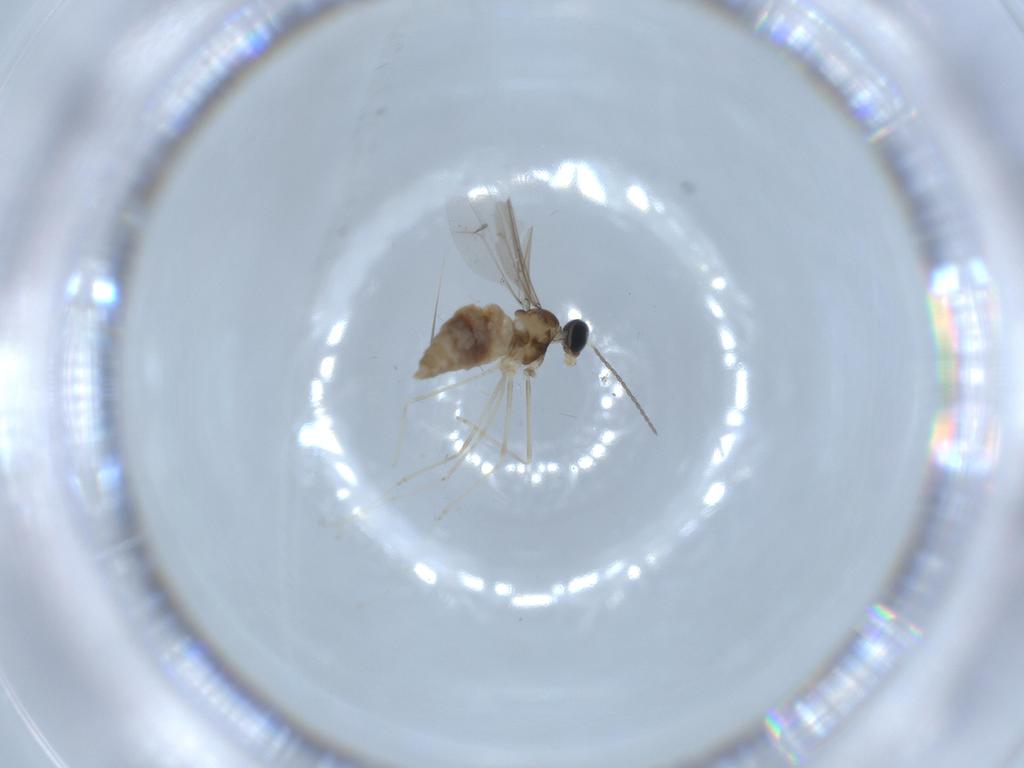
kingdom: Animalia
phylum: Arthropoda
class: Insecta
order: Diptera
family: Cecidomyiidae
